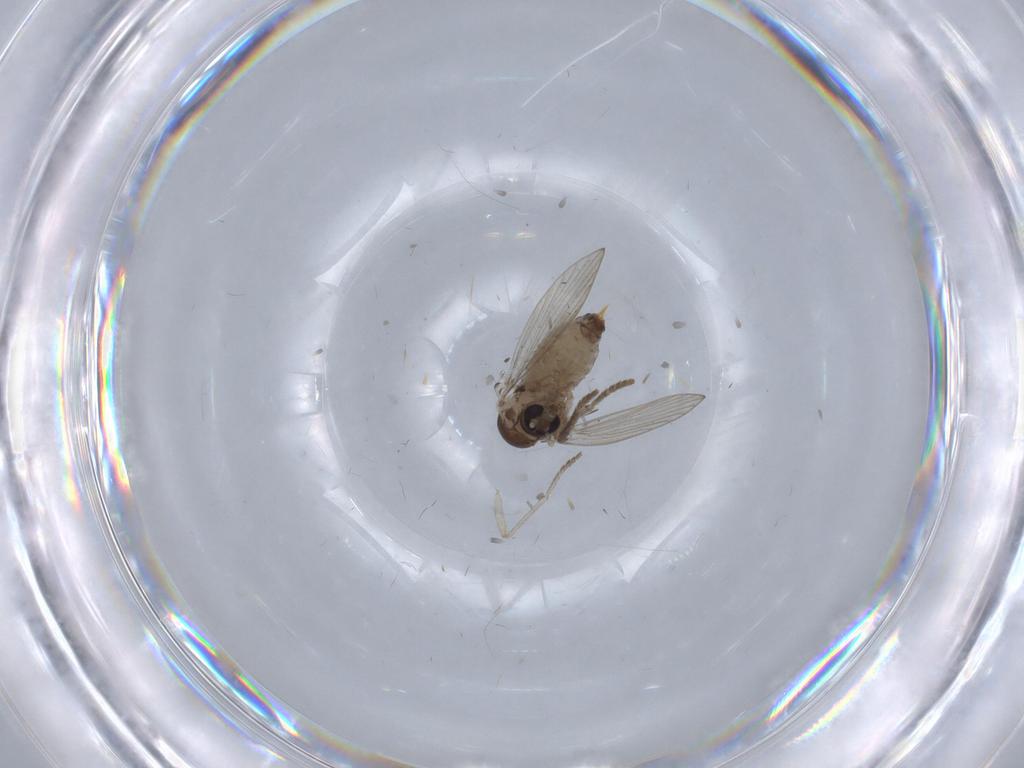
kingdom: Animalia
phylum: Arthropoda
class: Insecta
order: Diptera
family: Psychodidae
